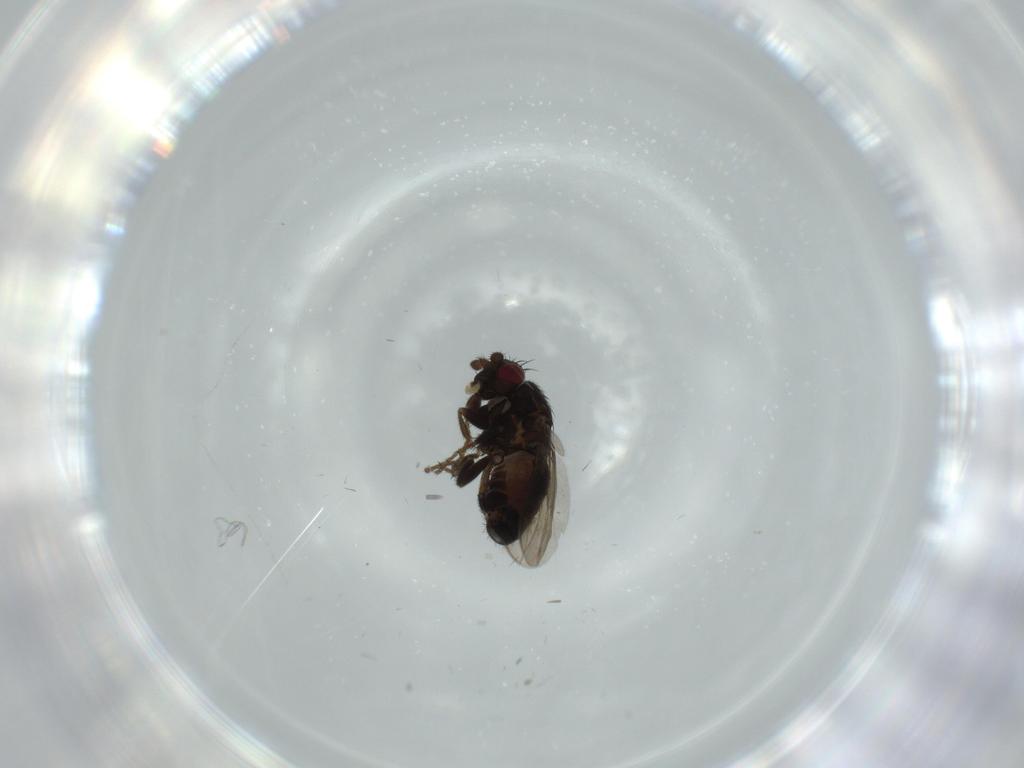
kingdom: Animalia
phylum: Arthropoda
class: Insecta
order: Diptera
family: Sphaeroceridae
